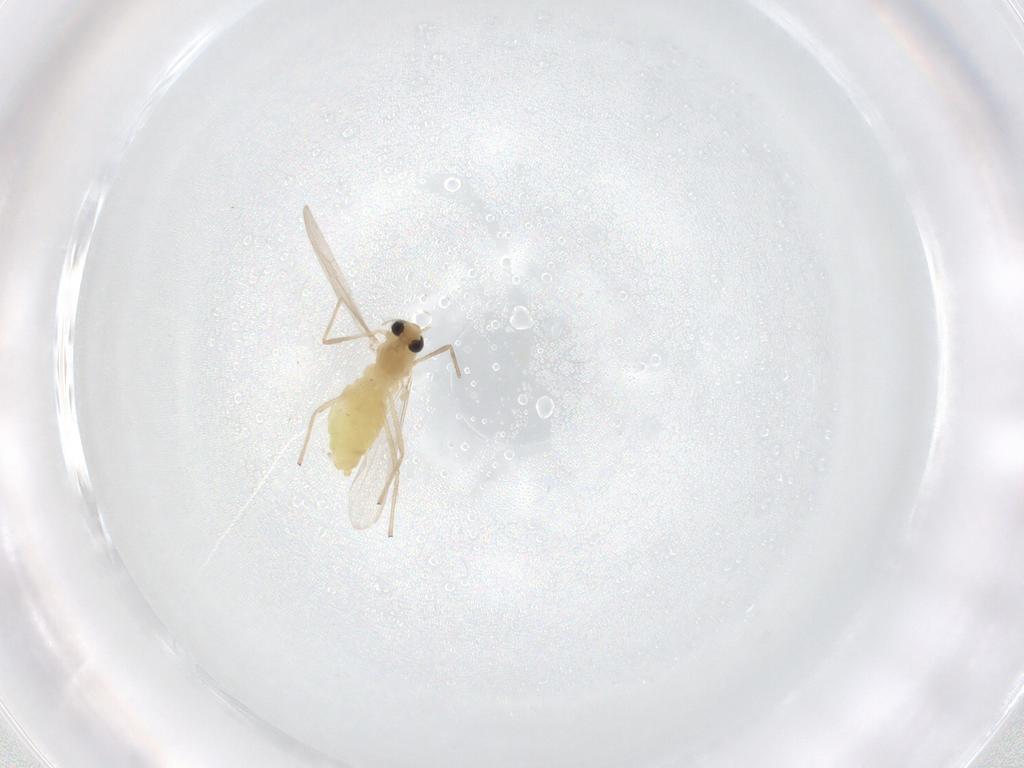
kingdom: Animalia
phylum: Arthropoda
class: Insecta
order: Diptera
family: Chironomidae
